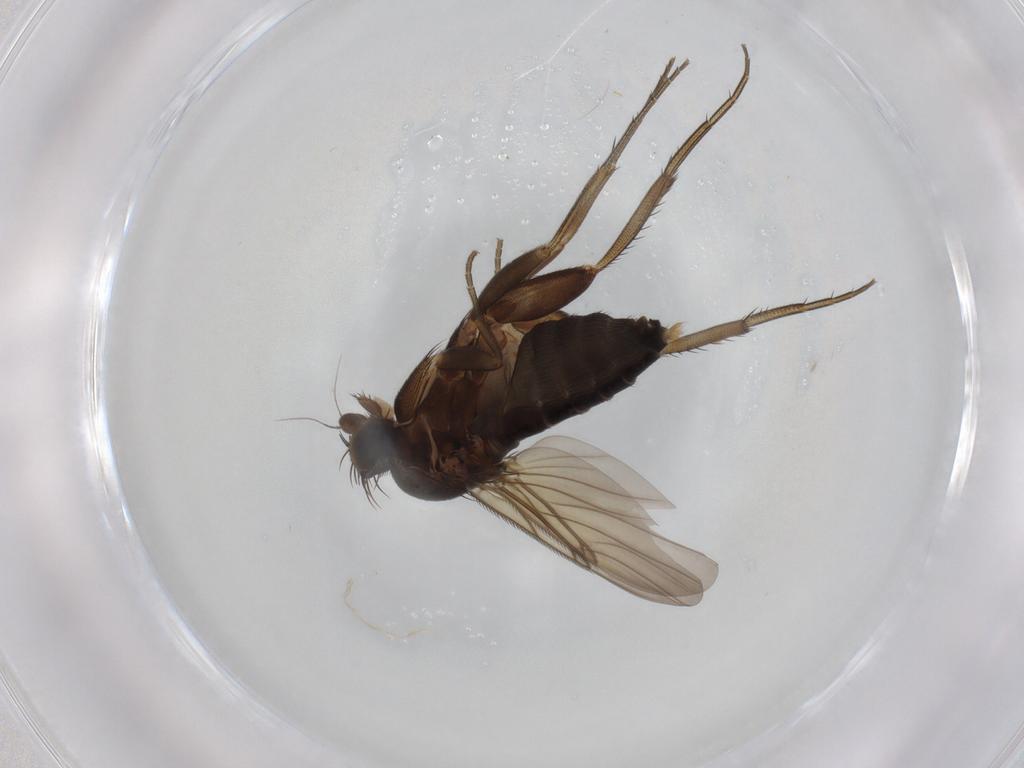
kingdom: Animalia
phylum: Arthropoda
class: Insecta
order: Diptera
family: Phoridae
